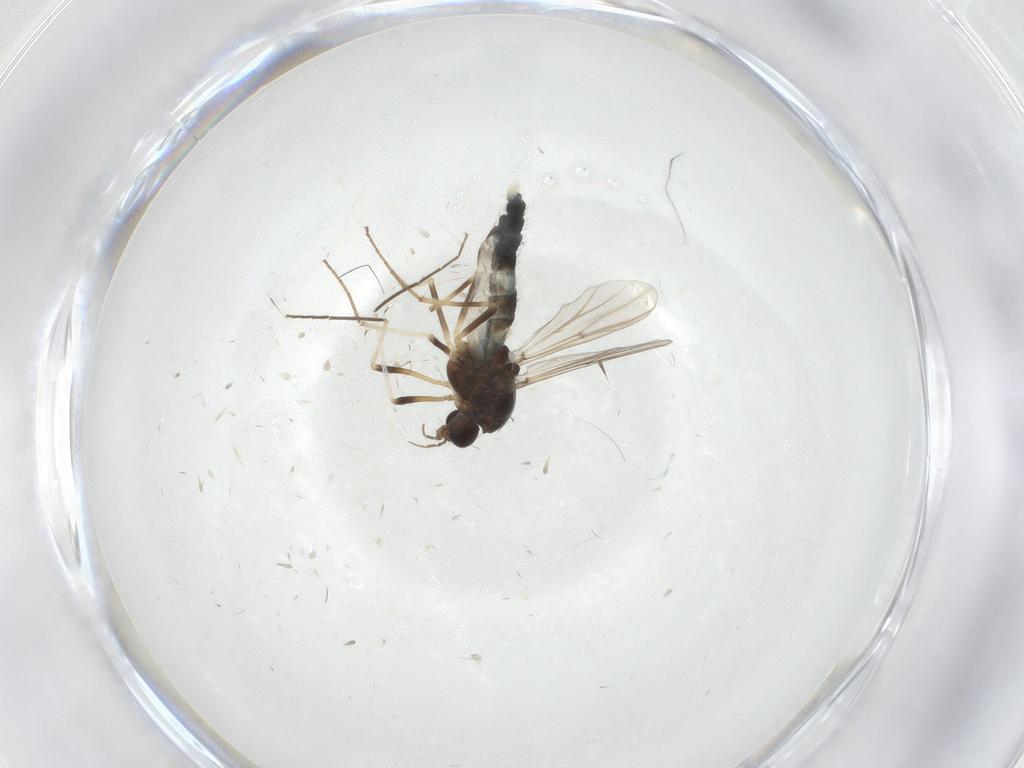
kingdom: Animalia
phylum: Arthropoda
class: Insecta
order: Diptera
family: Chironomidae
